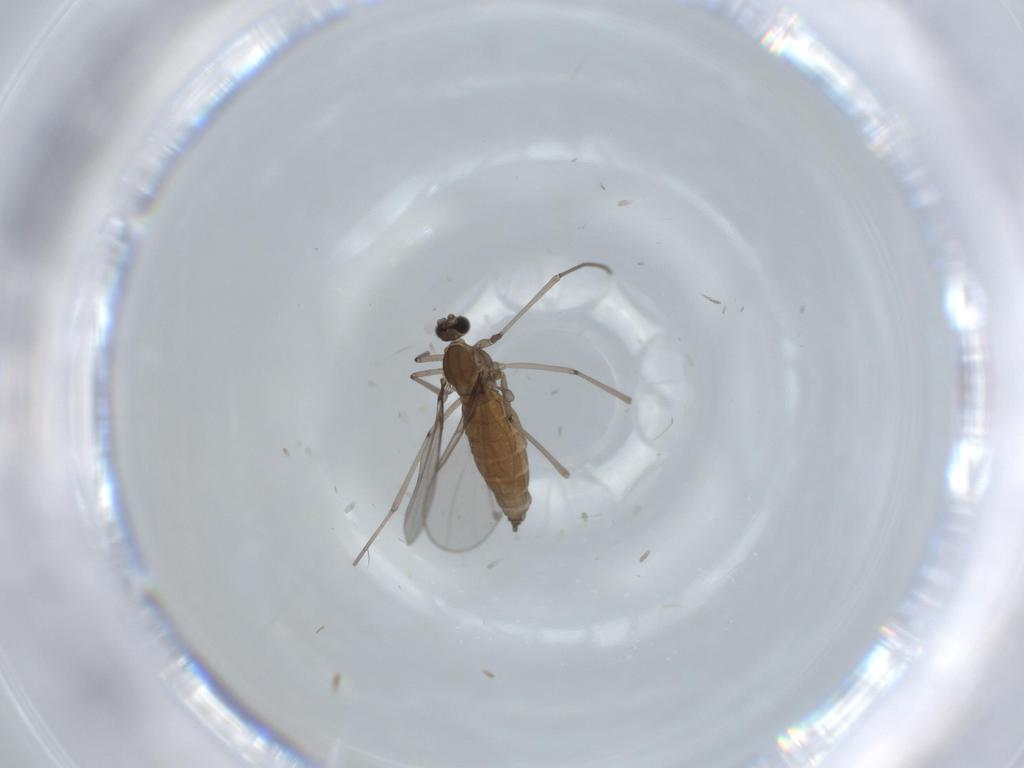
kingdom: Animalia
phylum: Arthropoda
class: Insecta
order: Diptera
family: Cecidomyiidae
